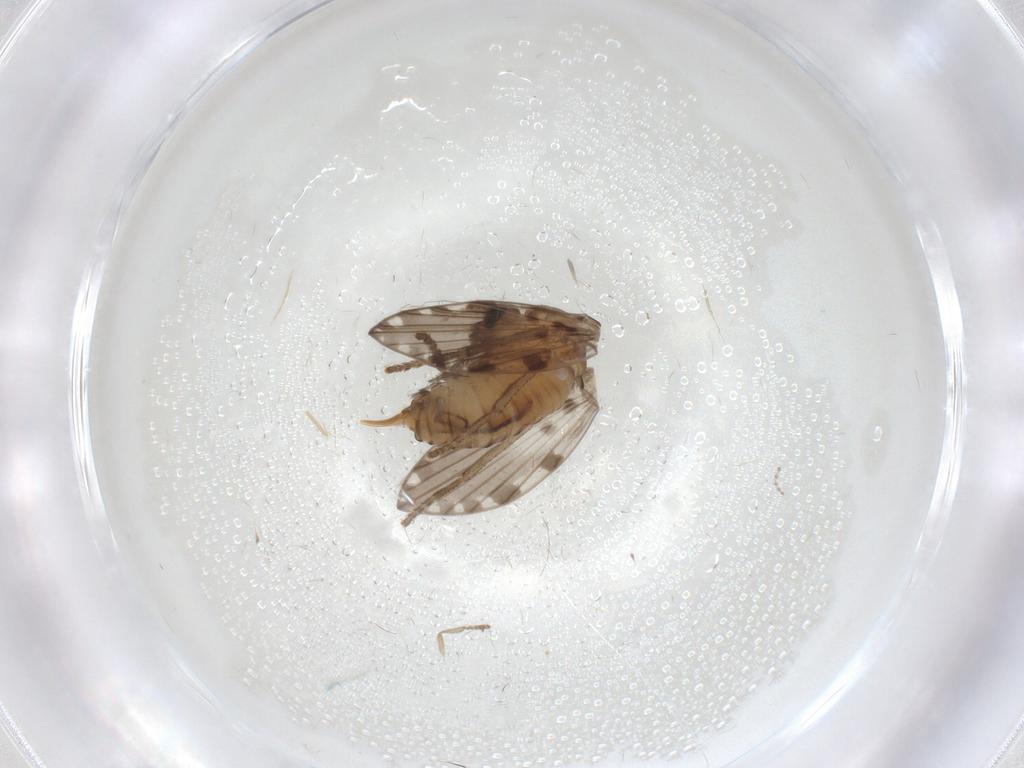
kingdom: Animalia
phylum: Arthropoda
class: Insecta
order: Diptera
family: Psychodidae
